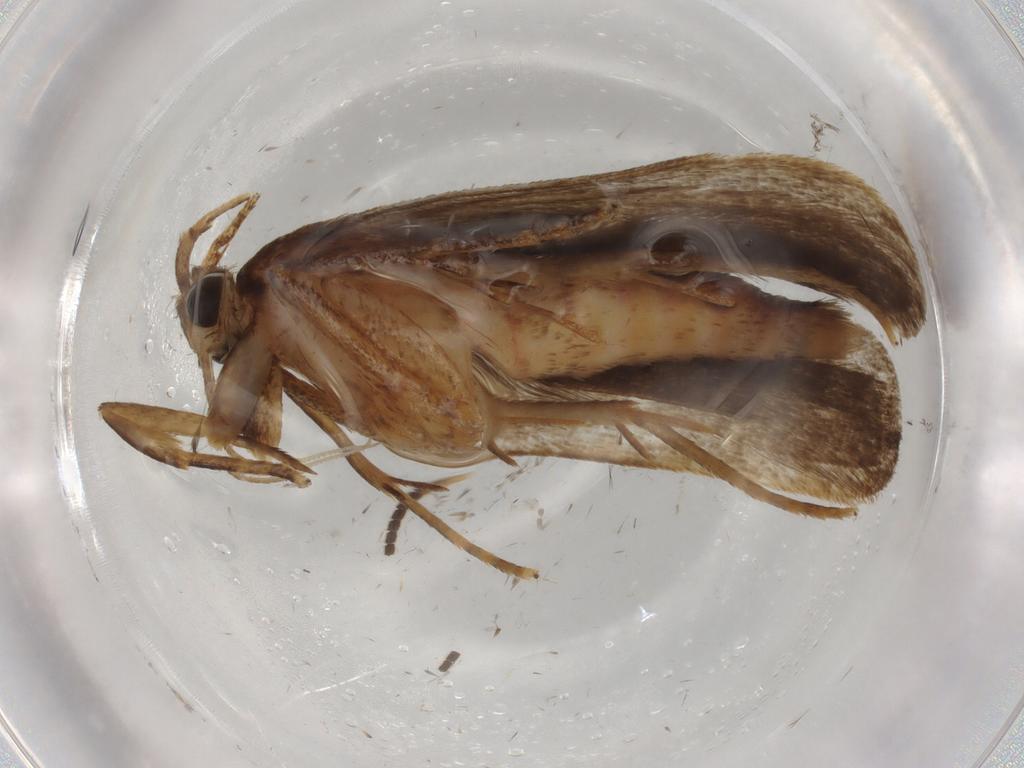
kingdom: Animalia
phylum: Arthropoda
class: Insecta
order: Lepidoptera
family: Autostichidae
